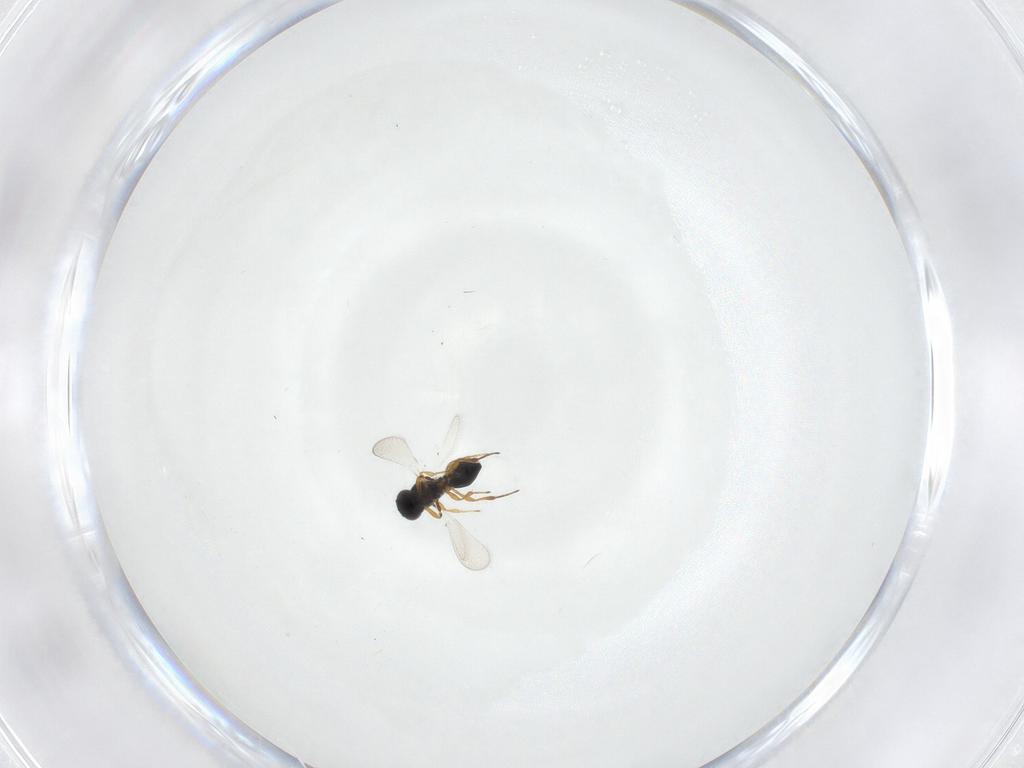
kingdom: Animalia
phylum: Arthropoda
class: Insecta
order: Hymenoptera
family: Platygastridae
